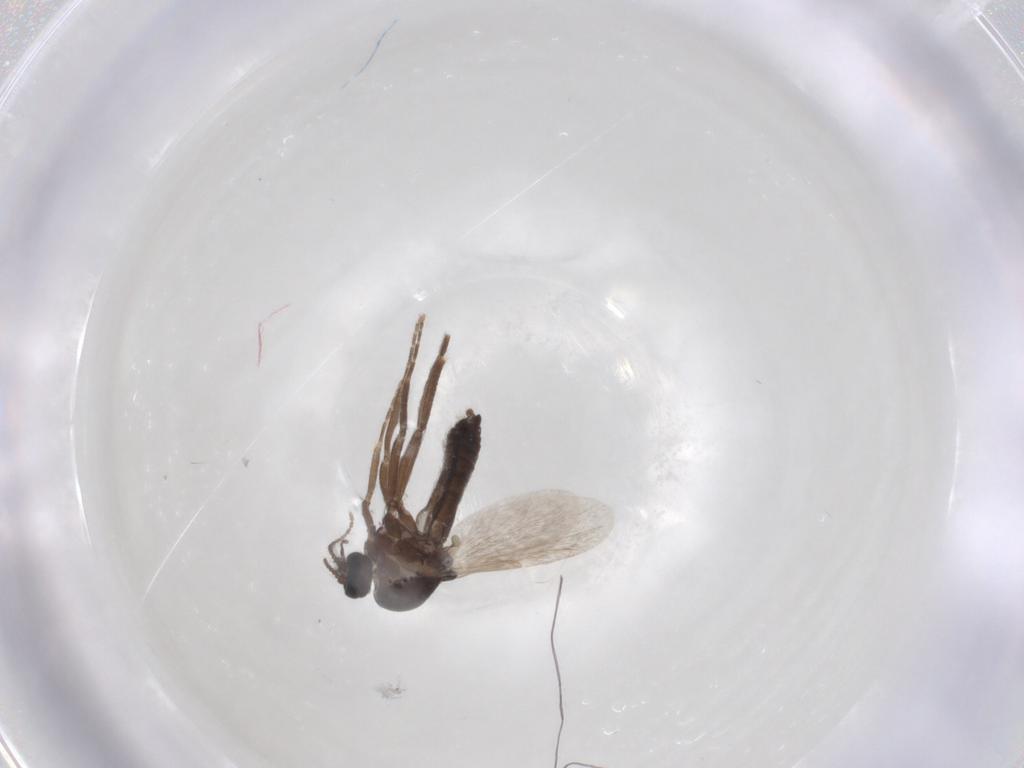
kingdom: Animalia
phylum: Arthropoda
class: Insecta
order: Diptera
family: Ceratopogonidae
